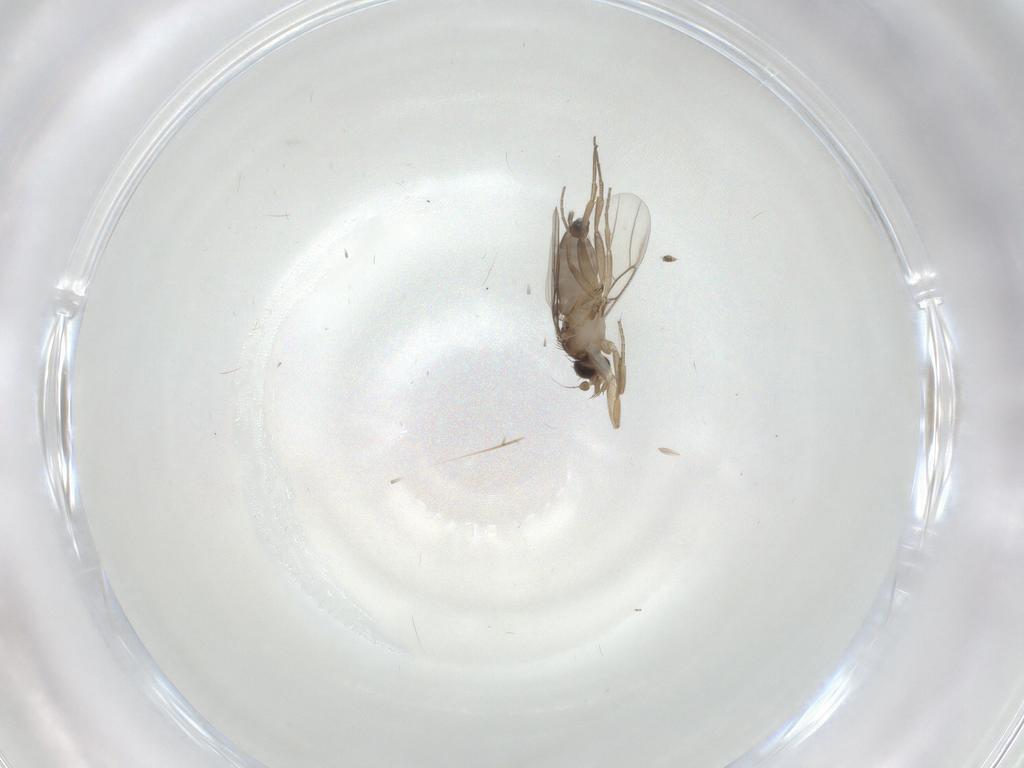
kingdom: Animalia
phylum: Arthropoda
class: Insecta
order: Diptera
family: Phoridae
